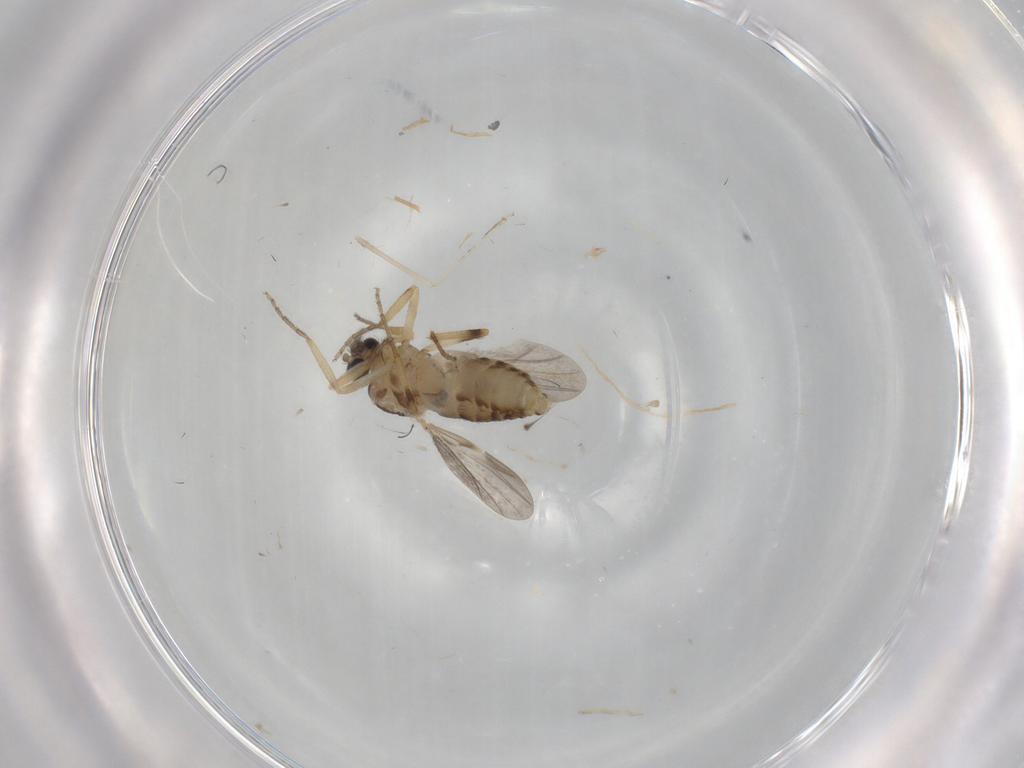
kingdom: Animalia
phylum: Arthropoda
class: Insecta
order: Diptera
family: Ceratopogonidae
